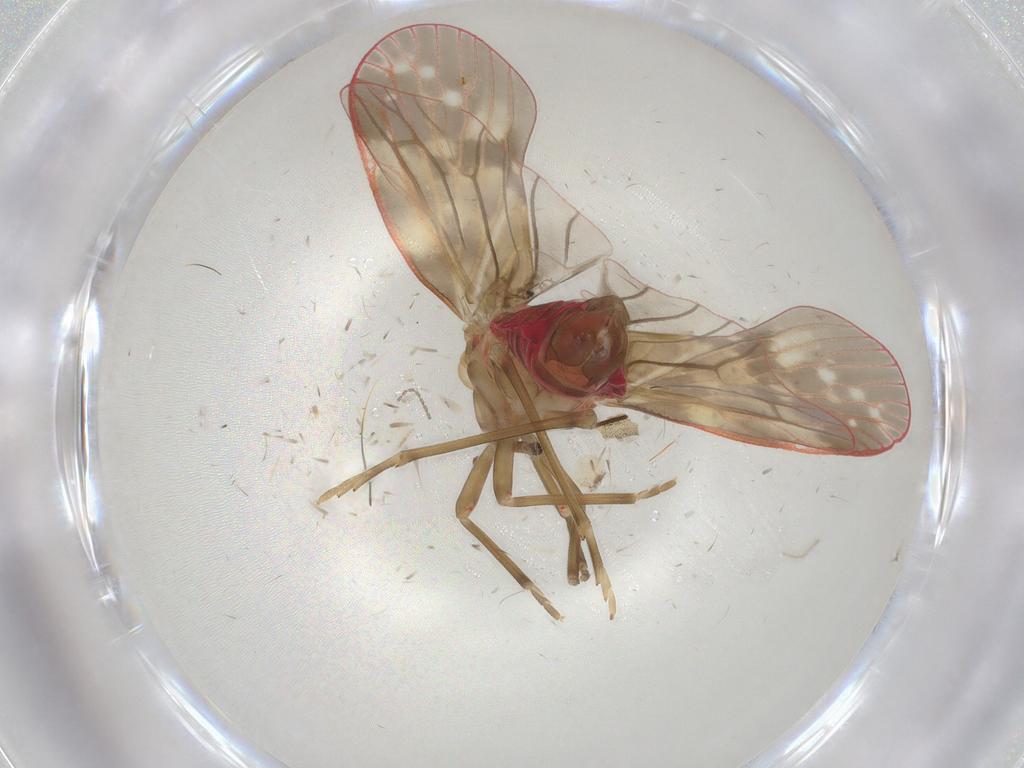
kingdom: Animalia
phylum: Arthropoda
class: Insecta
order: Hemiptera
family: Achilidae
